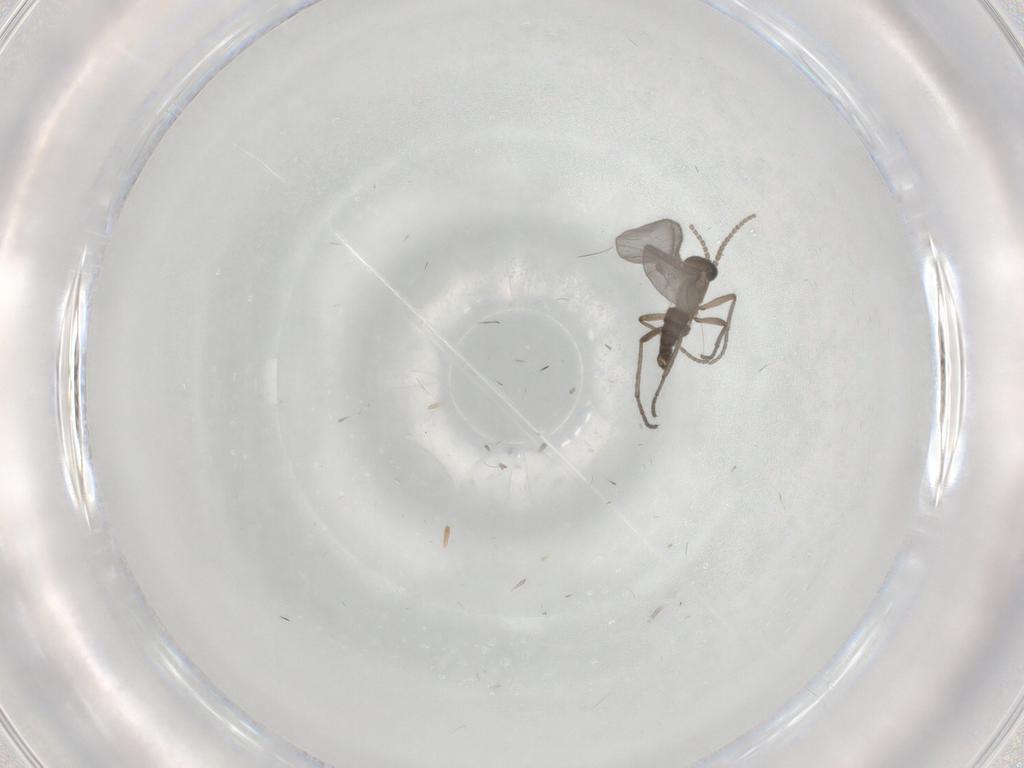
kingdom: Animalia
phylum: Arthropoda
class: Insecta
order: Diptera
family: Sciaridae
